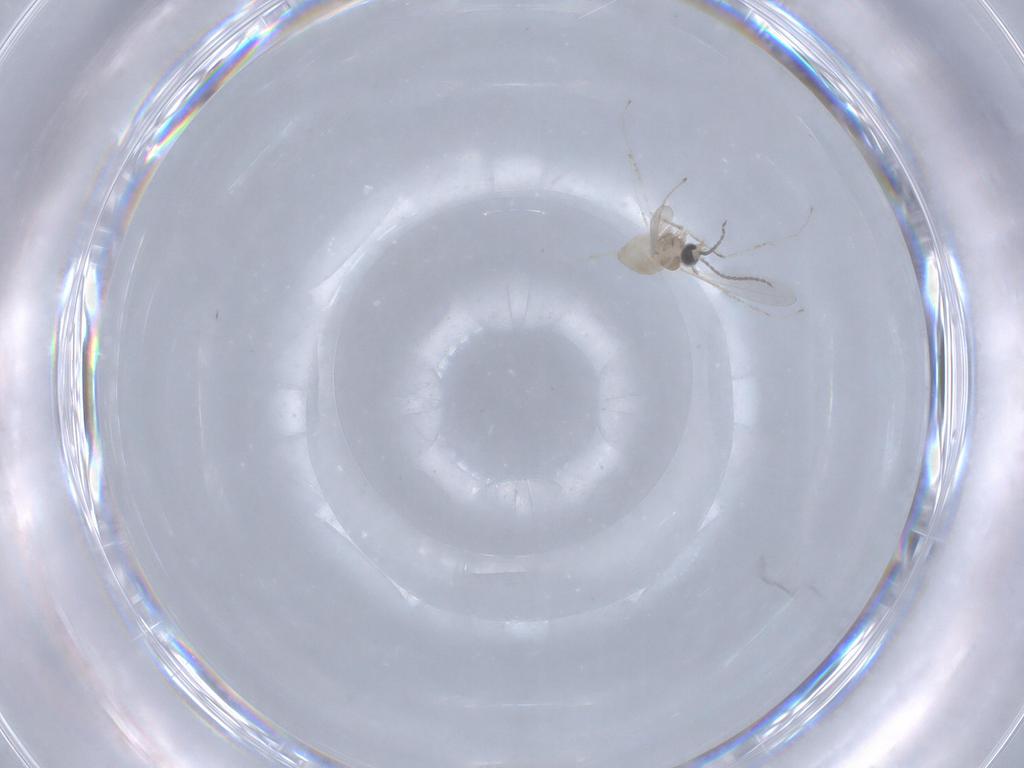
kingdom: Animalia
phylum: Arthropoda
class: Insecta
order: Diptera
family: Cecidomyiidae
